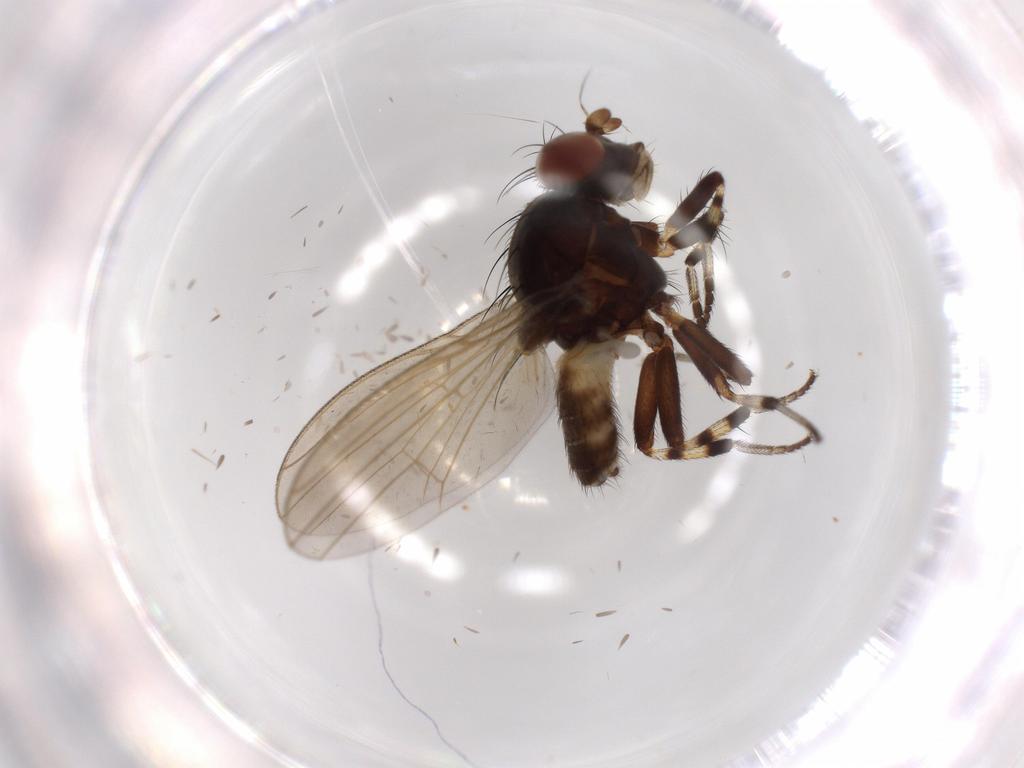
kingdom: Animalia
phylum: Arthropoda
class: Insecta
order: Diptera
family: Lauxaniidae
